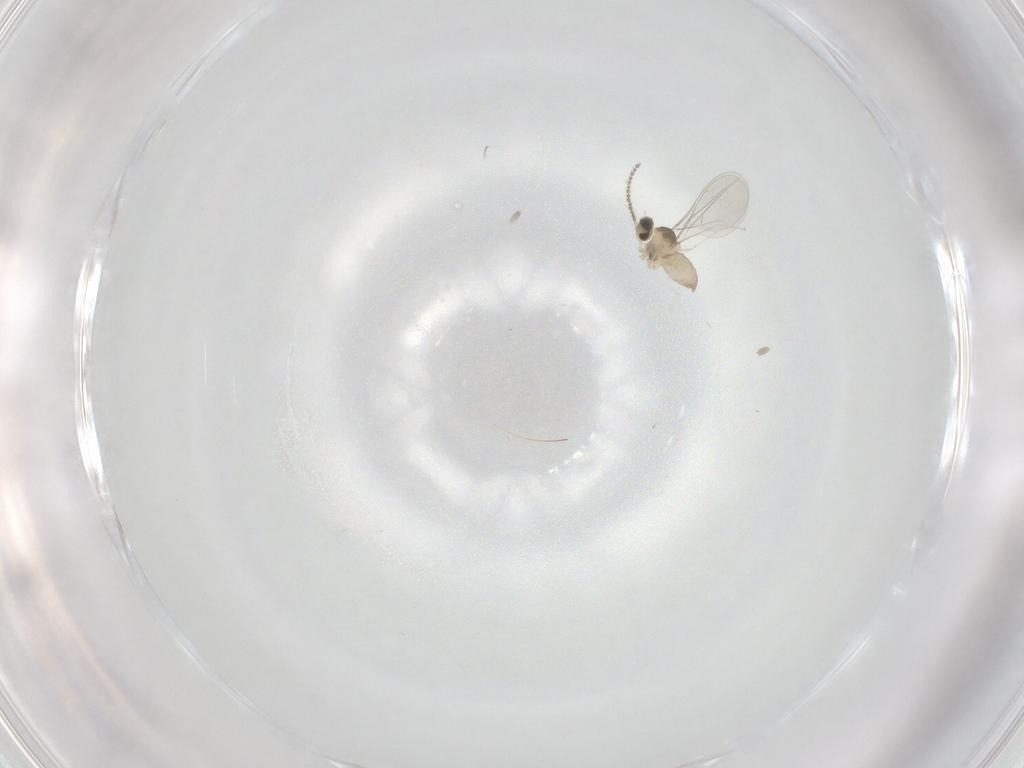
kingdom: Animalia
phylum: Arthropoda
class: Insecta
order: Diptera
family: Cecidomyiidae
